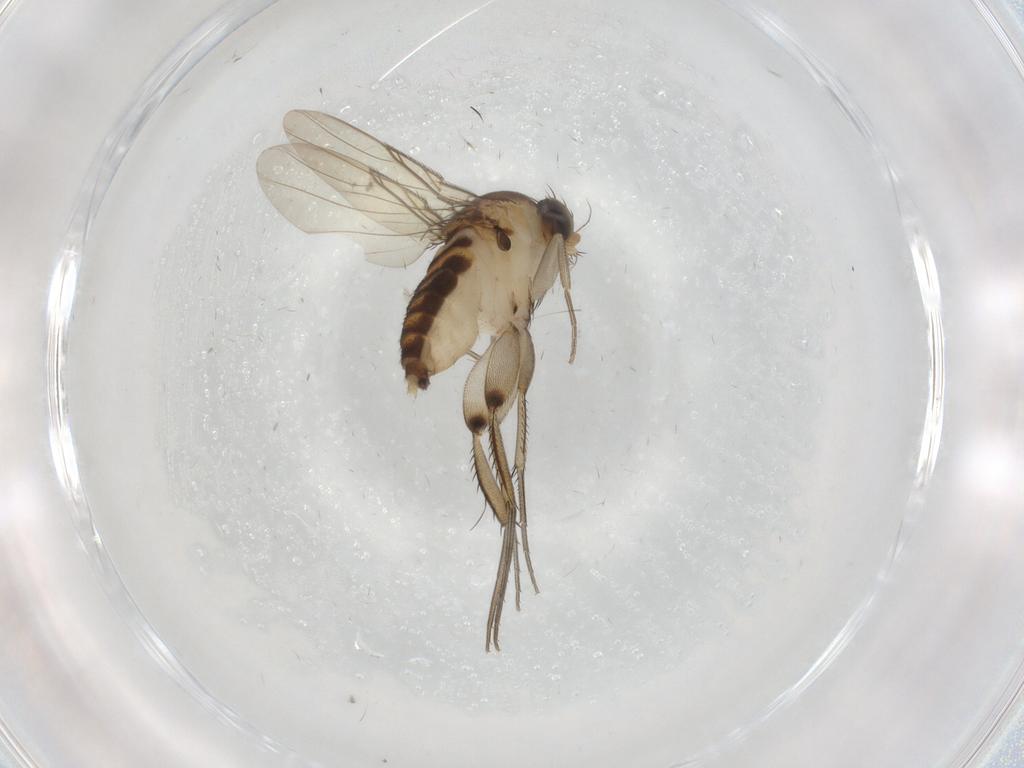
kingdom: Animalia
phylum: Arthropoda
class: Insecta
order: Diptera
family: Phoridae
